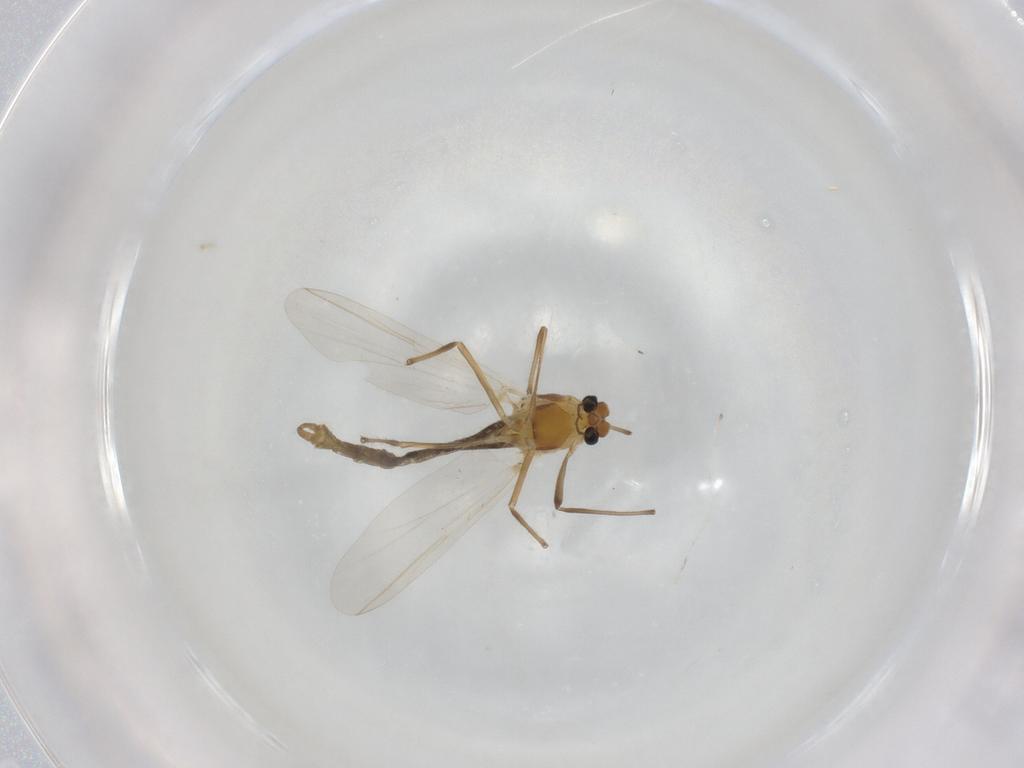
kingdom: Animalia
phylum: Arthropoda
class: Insecta
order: Diptera
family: Chironomidae
